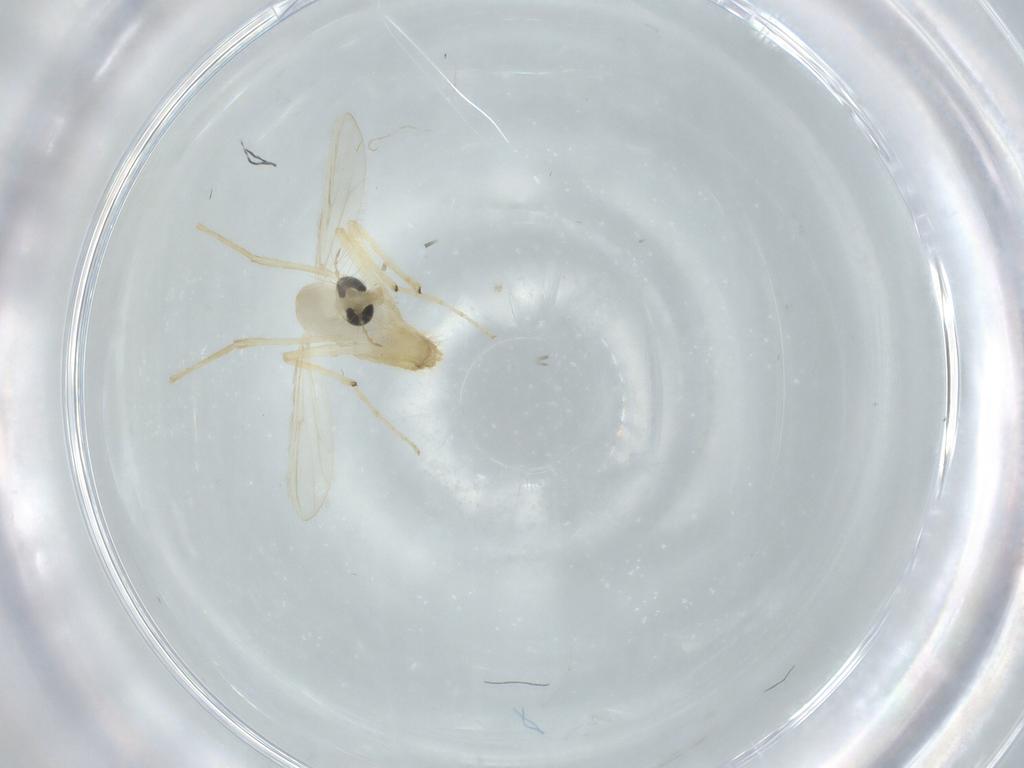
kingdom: Animalia
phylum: Arthropoda
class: Insecta
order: Diptera
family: Chironomidae
